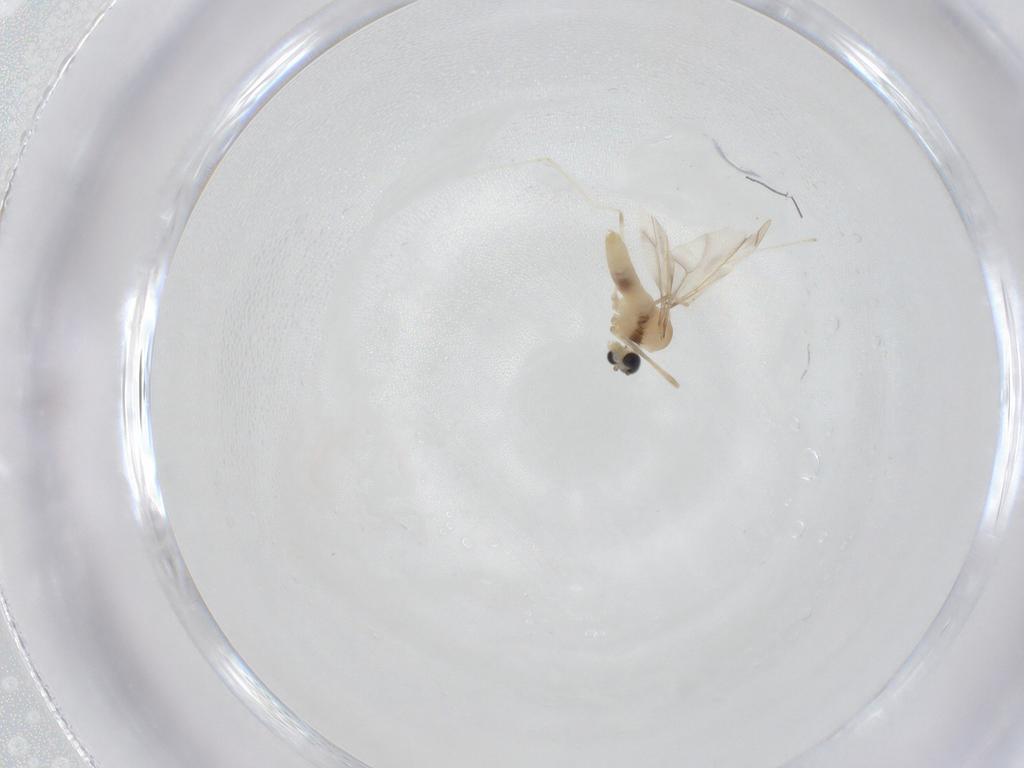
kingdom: Animalia
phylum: Arthropoda
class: Insecta
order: Diptera
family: Cecidomyiidae
